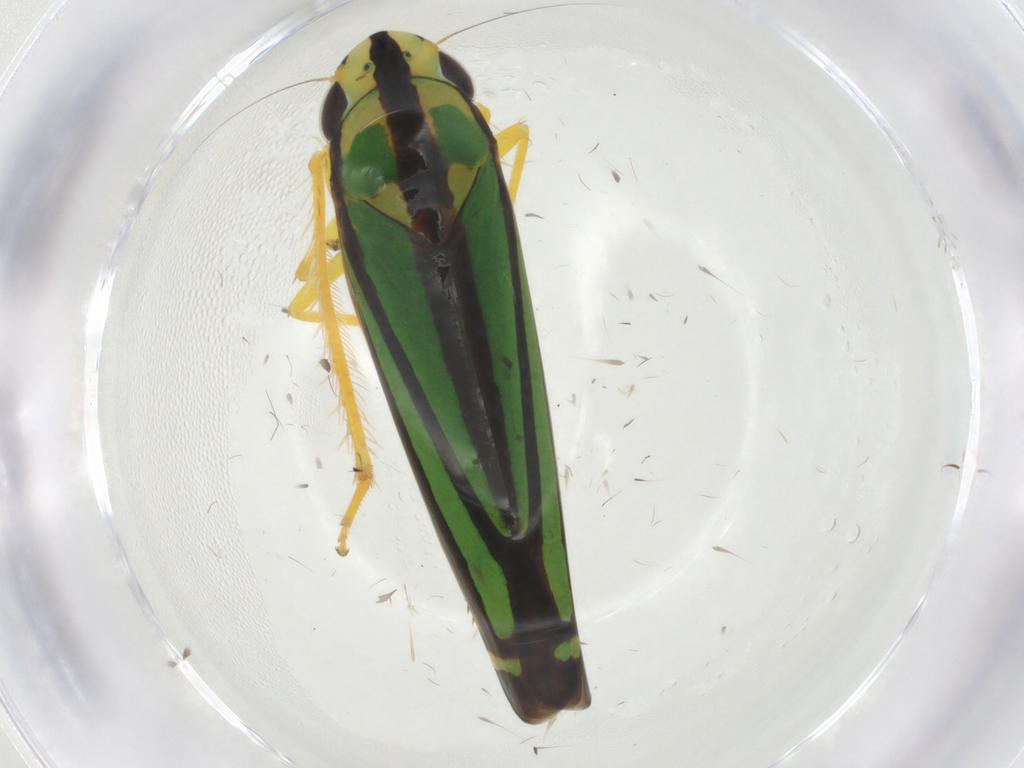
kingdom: Animalia
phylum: Arthropoda
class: Insecta
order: Hemiptera
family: Cicadellidae
